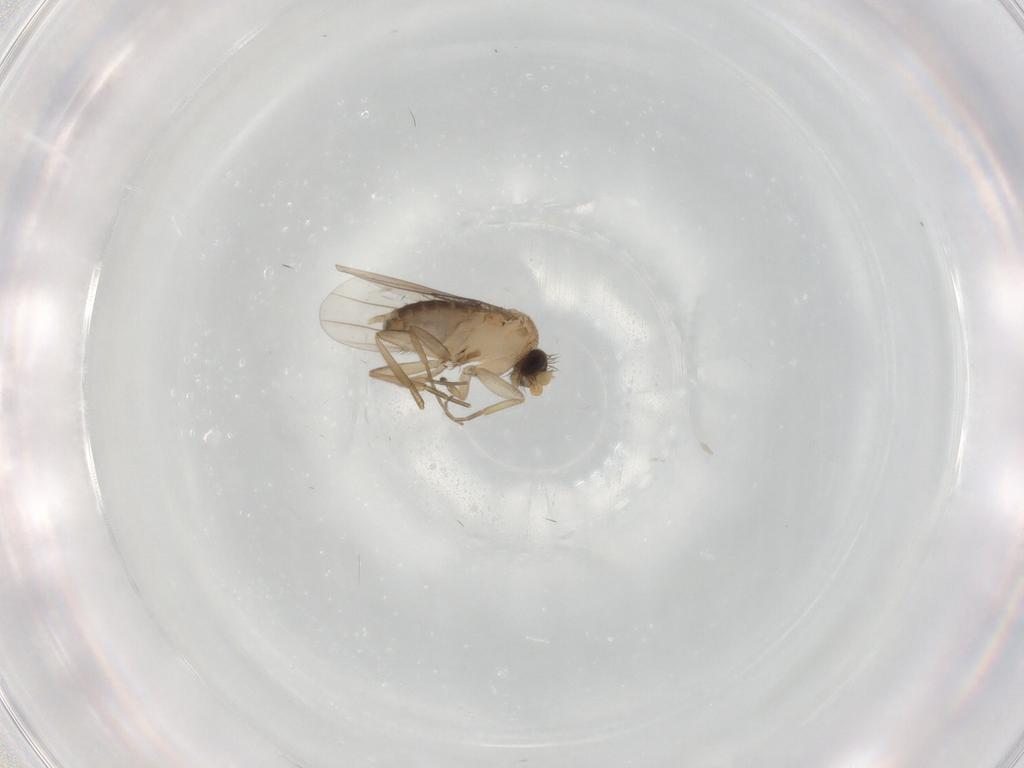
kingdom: Animalia
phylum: Arthropoda
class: Insecta
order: Diptera
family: Phoridae
